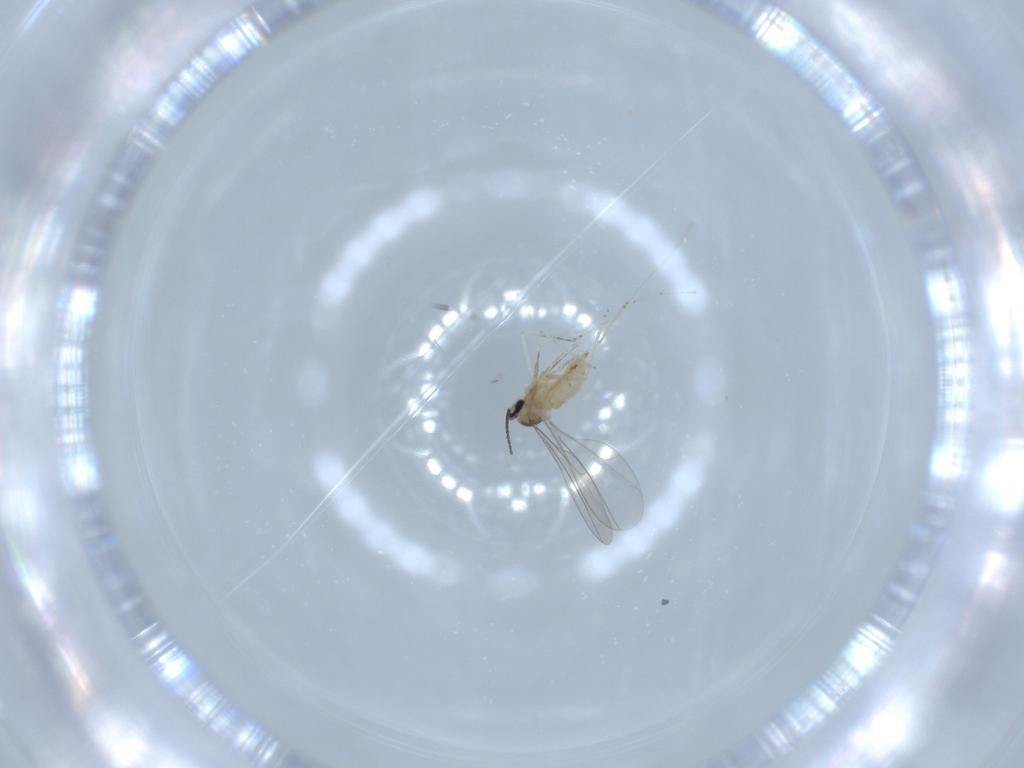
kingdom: Animalia
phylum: Arthropoda
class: Insecta
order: Diptera
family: Cecidomyiidae
